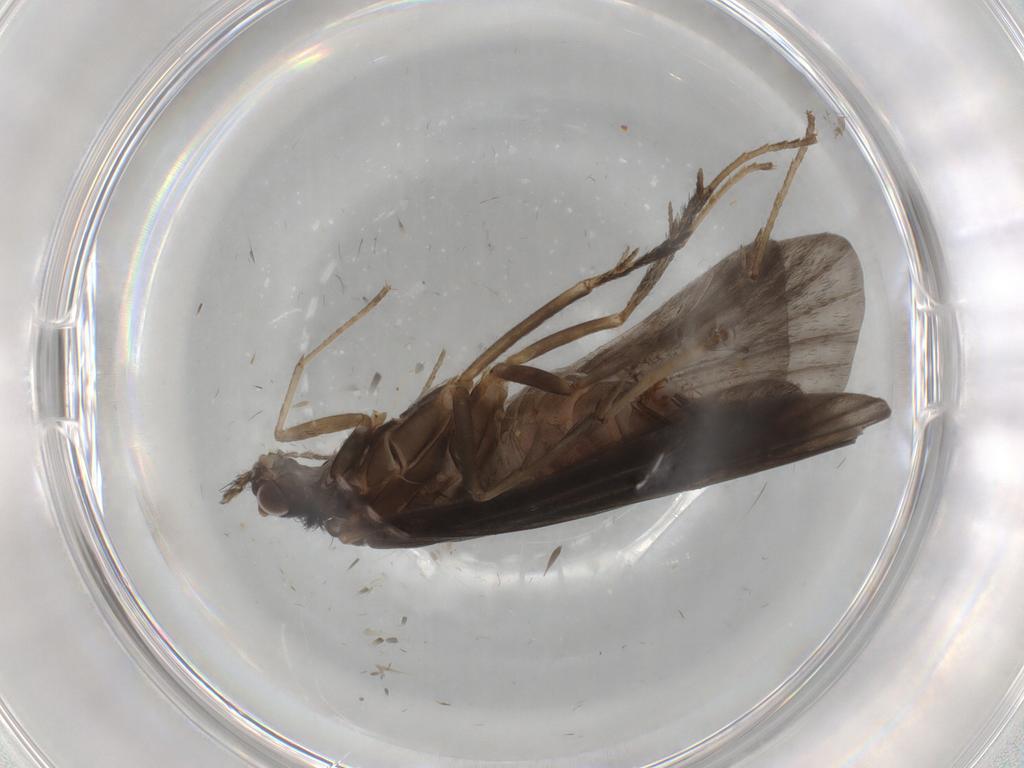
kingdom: Animalia
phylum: Arthropoda
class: Insecta
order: Trichoptera
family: Hydropsychidae
